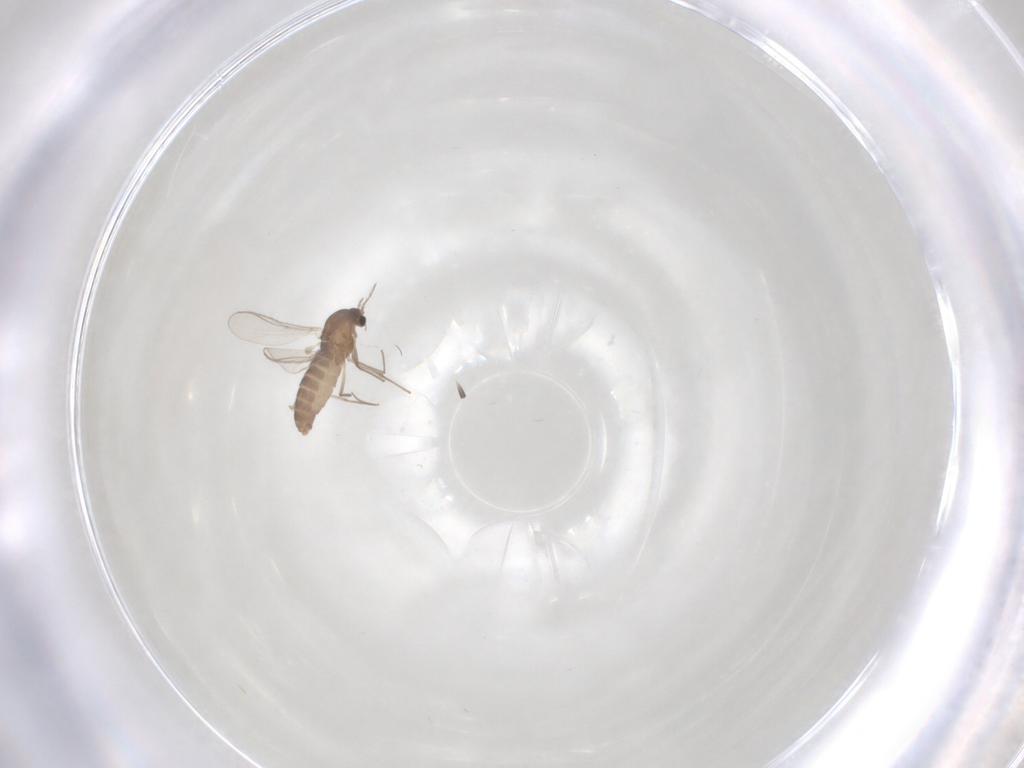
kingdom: Animalia
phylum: Arthropoda
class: Insecta
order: Diptera
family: Chironomidae
